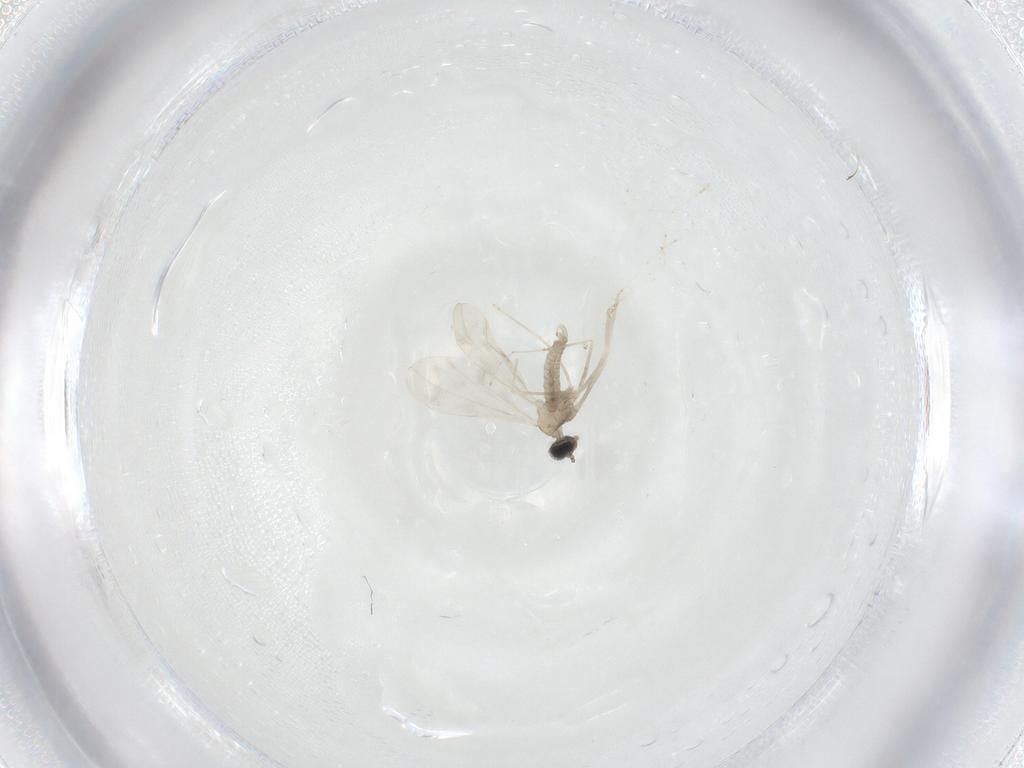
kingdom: Animalia
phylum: Arthropoda
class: Insecta
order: Diptera
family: Cecidomyiidae
